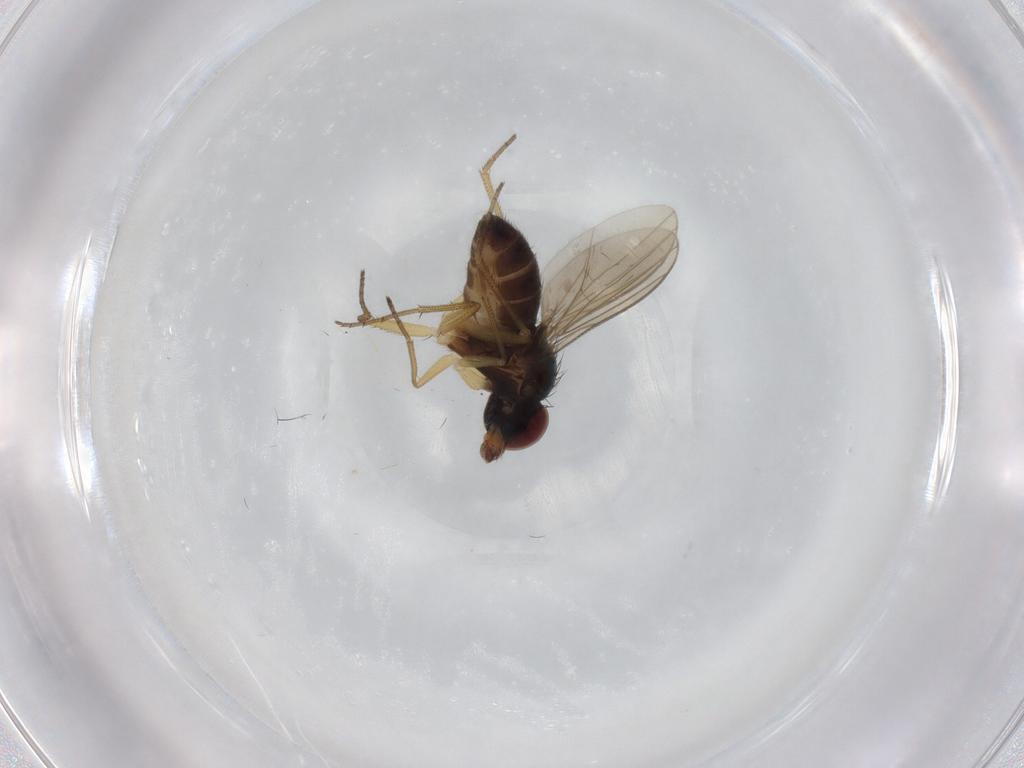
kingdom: Animalia
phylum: Arthropoda
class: Insecta
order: Diptera
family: Dolichopodidae
